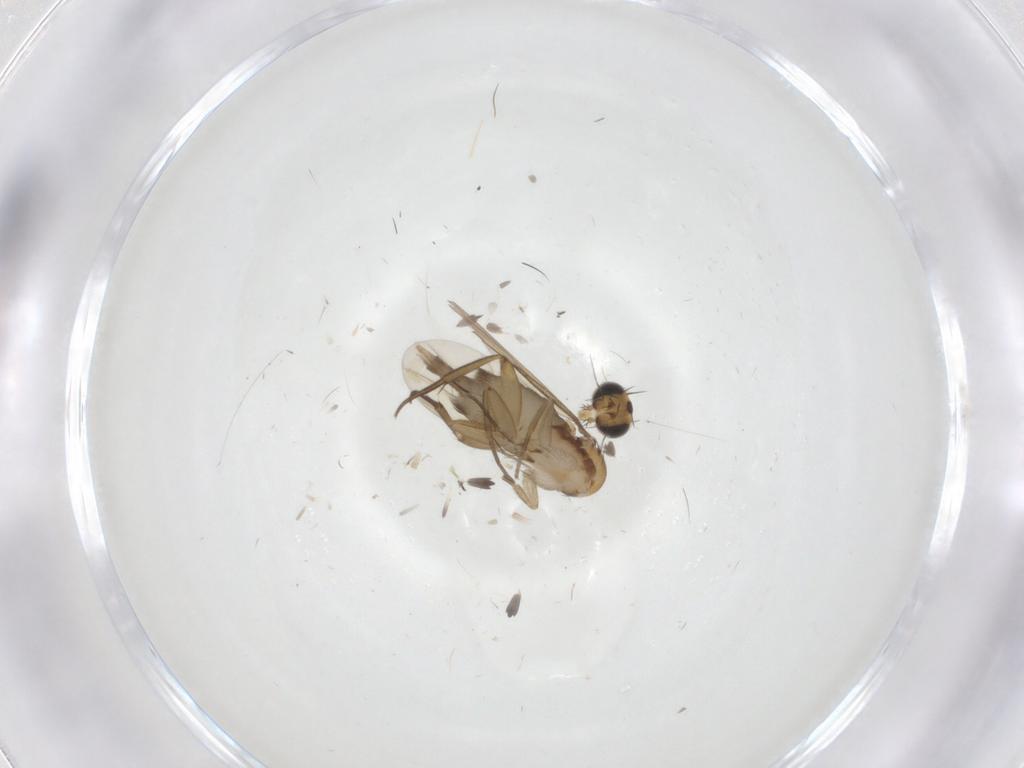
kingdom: Animalia
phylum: Arthropoda
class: Insecta
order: Diptera
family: Phoridae
